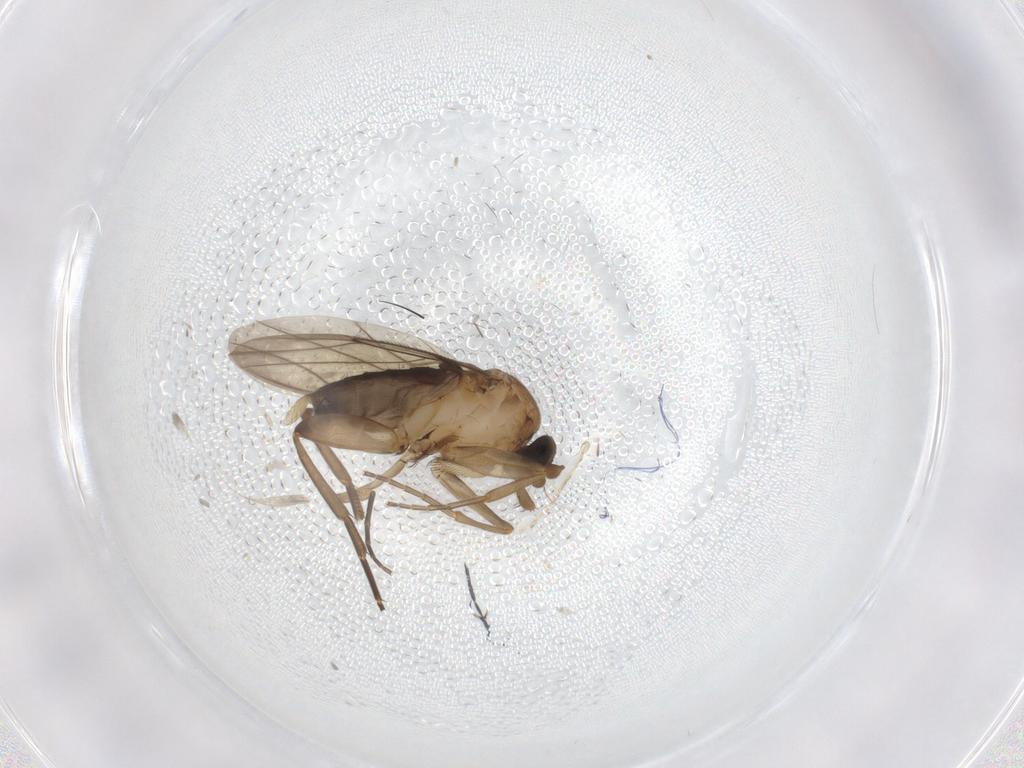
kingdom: Animalia
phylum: Arthropoda
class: Insecta
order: Diptera
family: Phoridae
